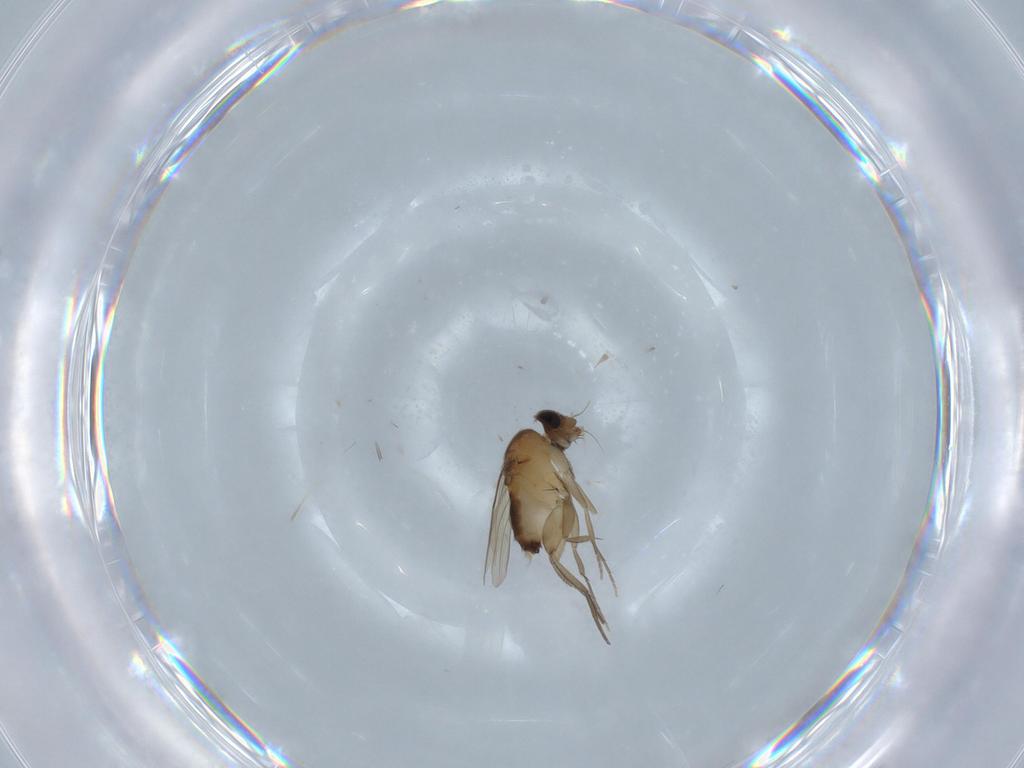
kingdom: Animalia
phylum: Arthropoda
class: Insecta
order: Diptera
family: Phoridae
